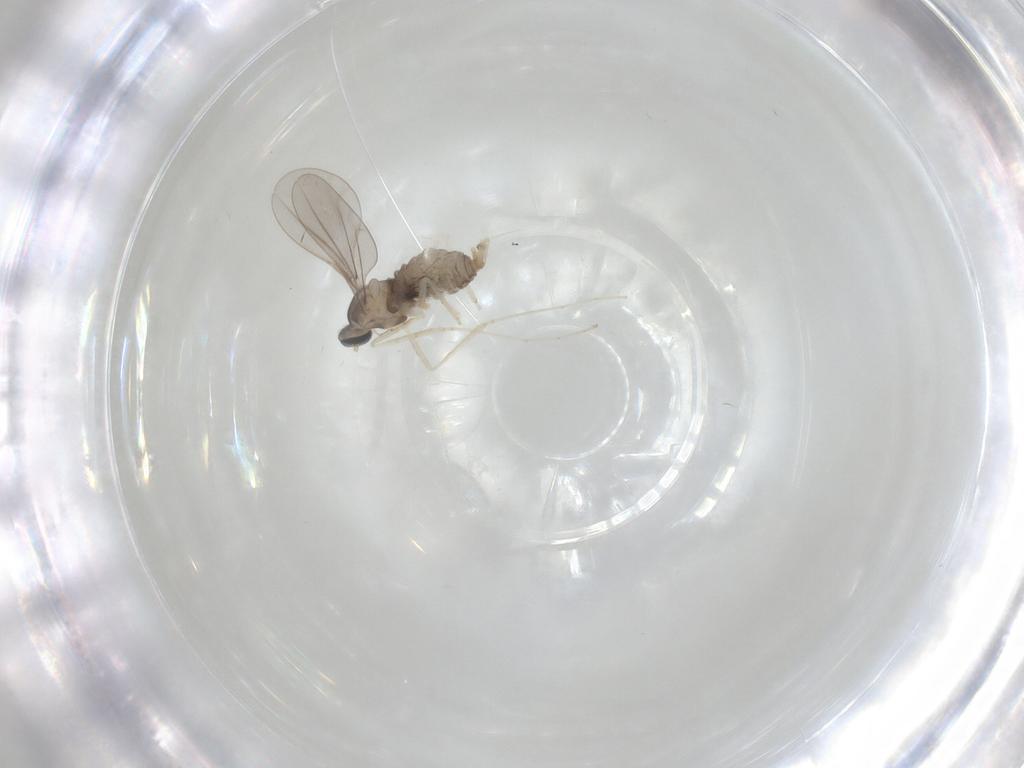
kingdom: Animalia
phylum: Arthropoda
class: Insecta
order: Diptera
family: Cecidomyiidae
